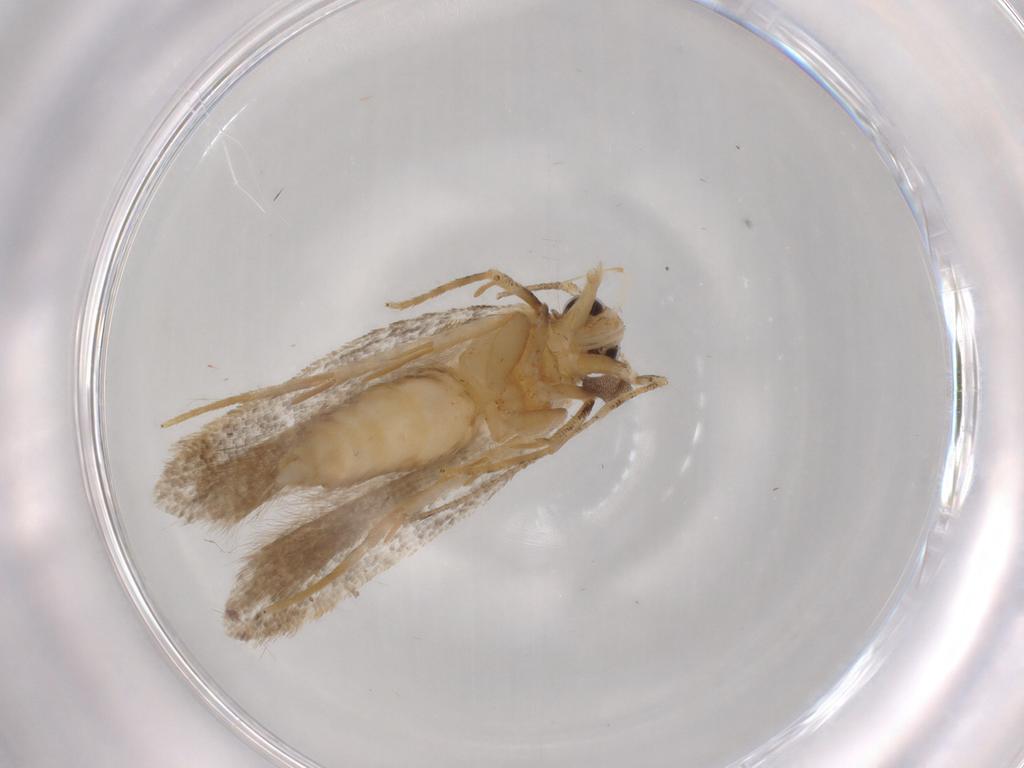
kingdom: Animalia
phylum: Arthropoda
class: Insecta
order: Lepidoptera
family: Autostichidae
